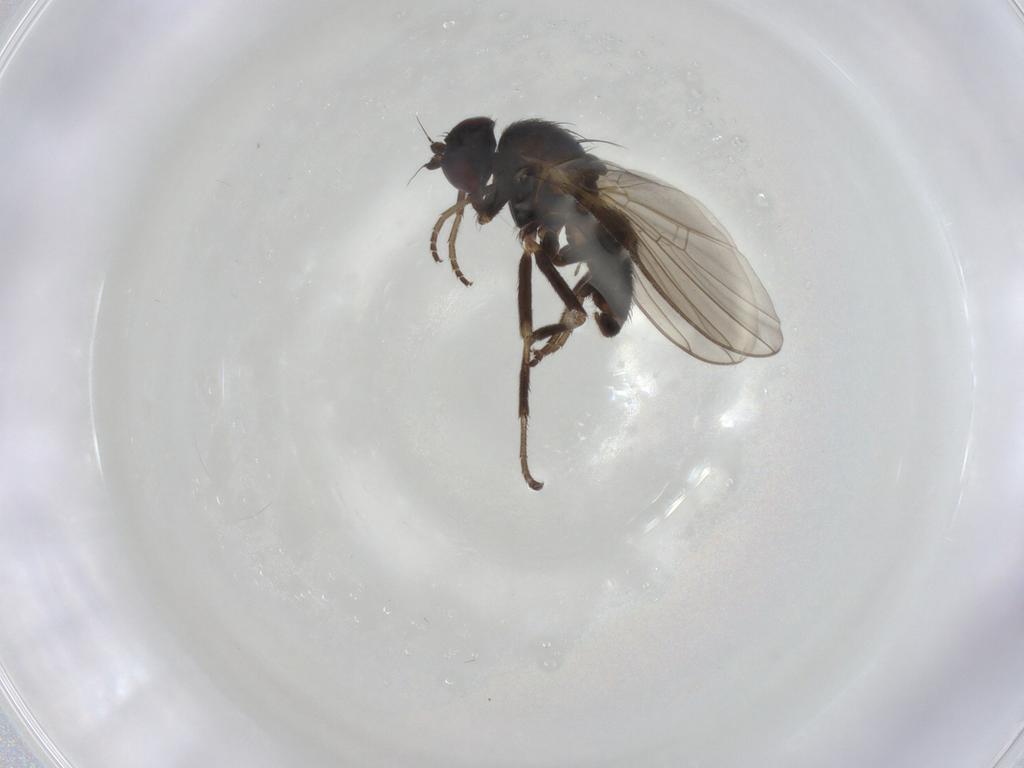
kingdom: Animalia
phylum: Arthropoda
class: Insecta
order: Diptera
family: Agromyzidae
